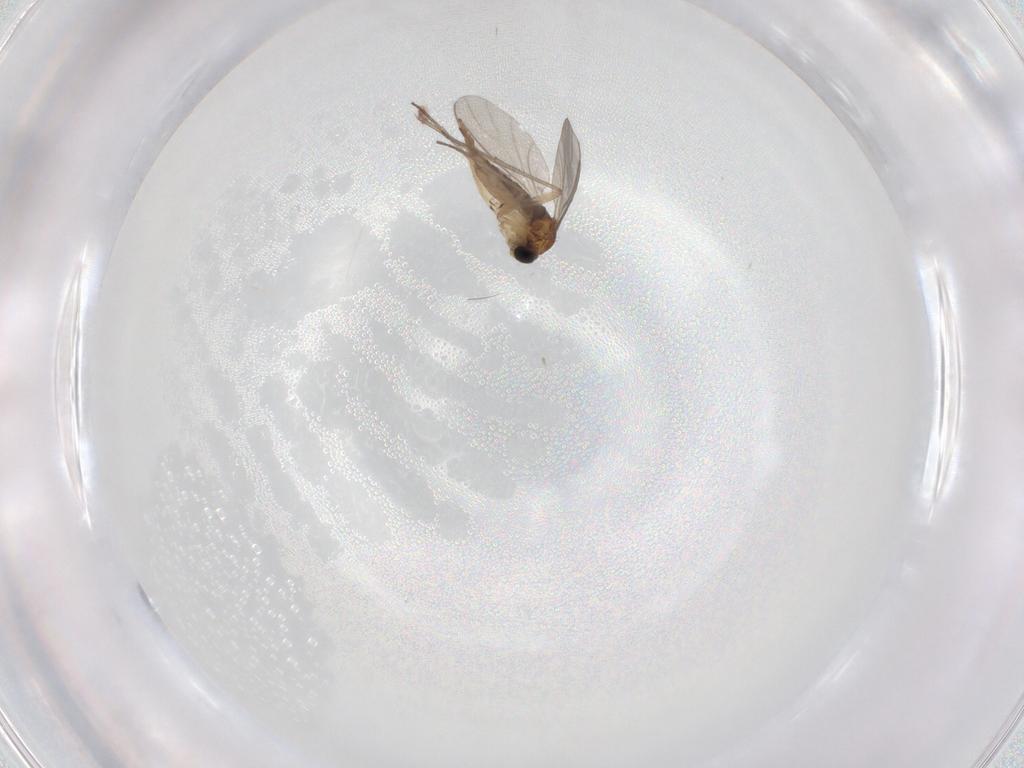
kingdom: Animalia
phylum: Arthropoda
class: Insecta
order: Diptera
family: Sciaridae
